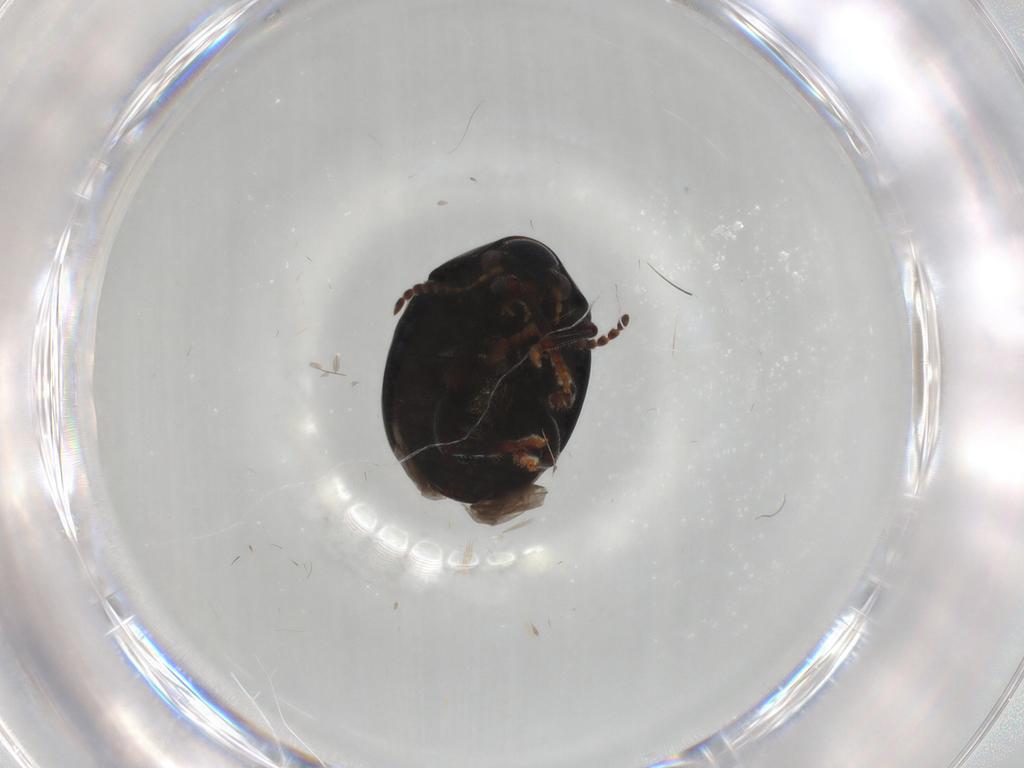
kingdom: Animalia
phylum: Arthropoda
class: Insecta
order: Coleoptera
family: Chrysomelidae
